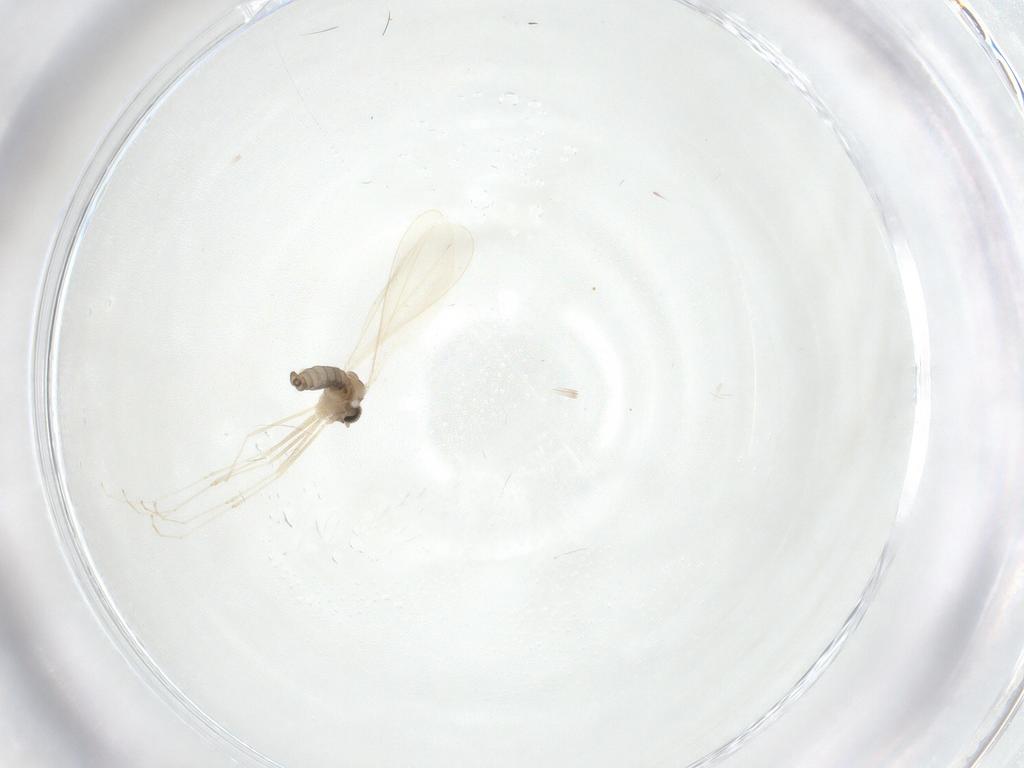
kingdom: Animalia
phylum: Arthropoda
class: Insecta
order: Diptera
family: Cecidomyiidae
